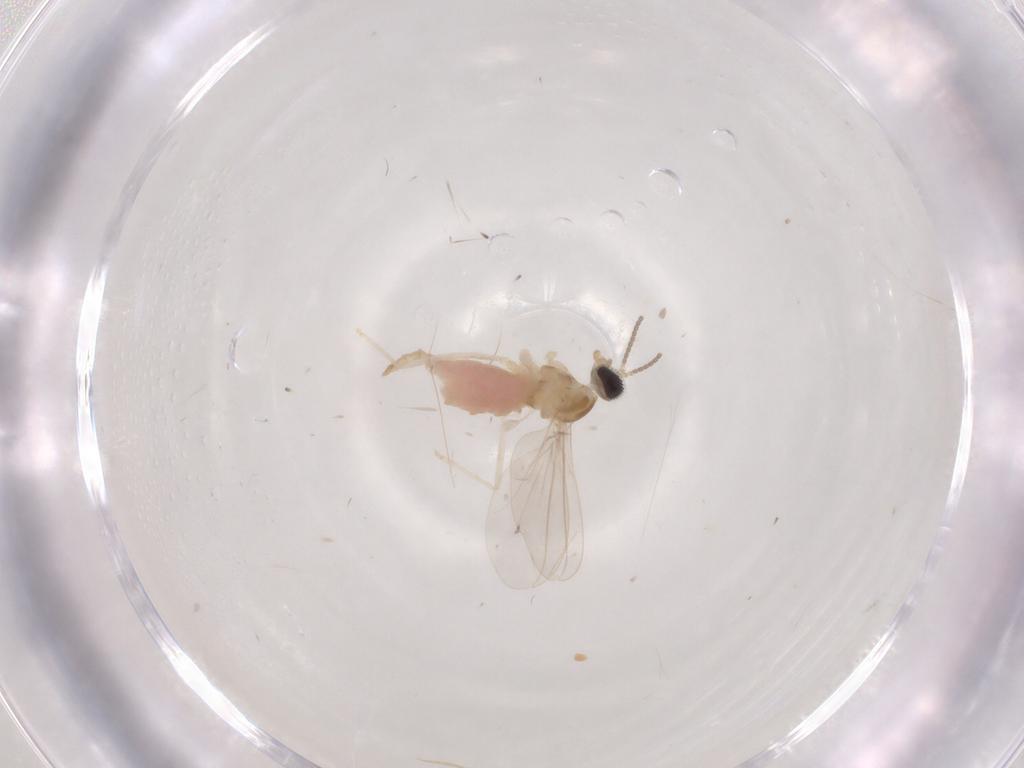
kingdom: Animalia
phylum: Arthropoda
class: Insecta
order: Diptera
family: Cecidomyiidae
